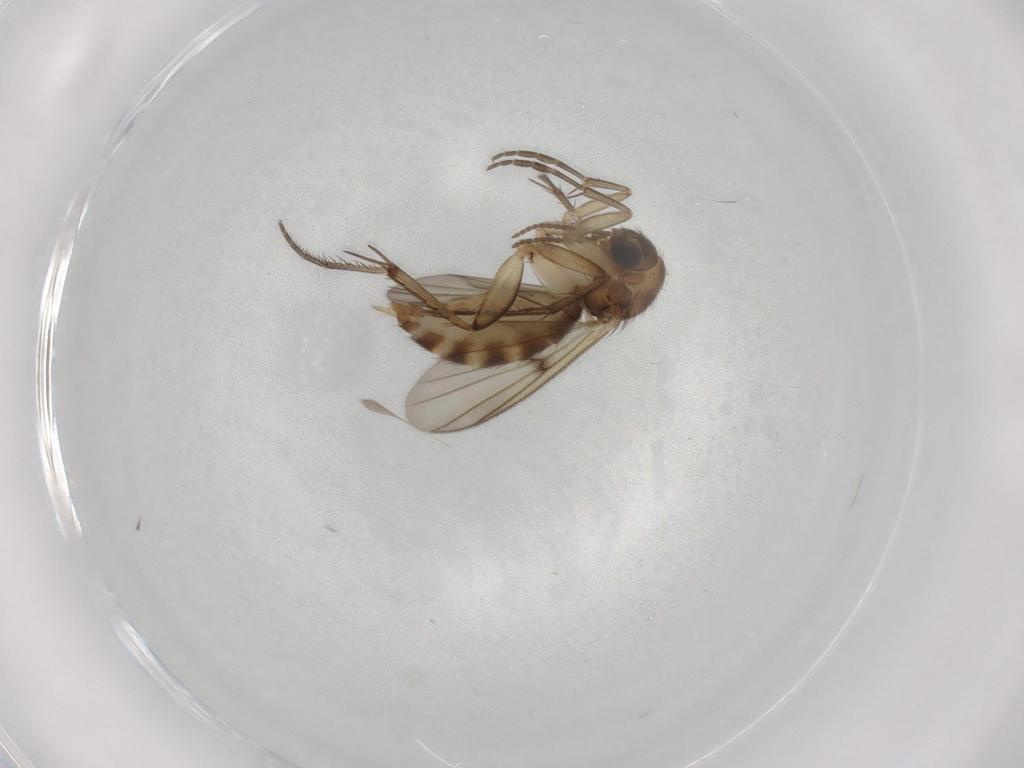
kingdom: Animalia
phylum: Arthropoda
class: Insecta
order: Diptera
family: Mycetophilidae
